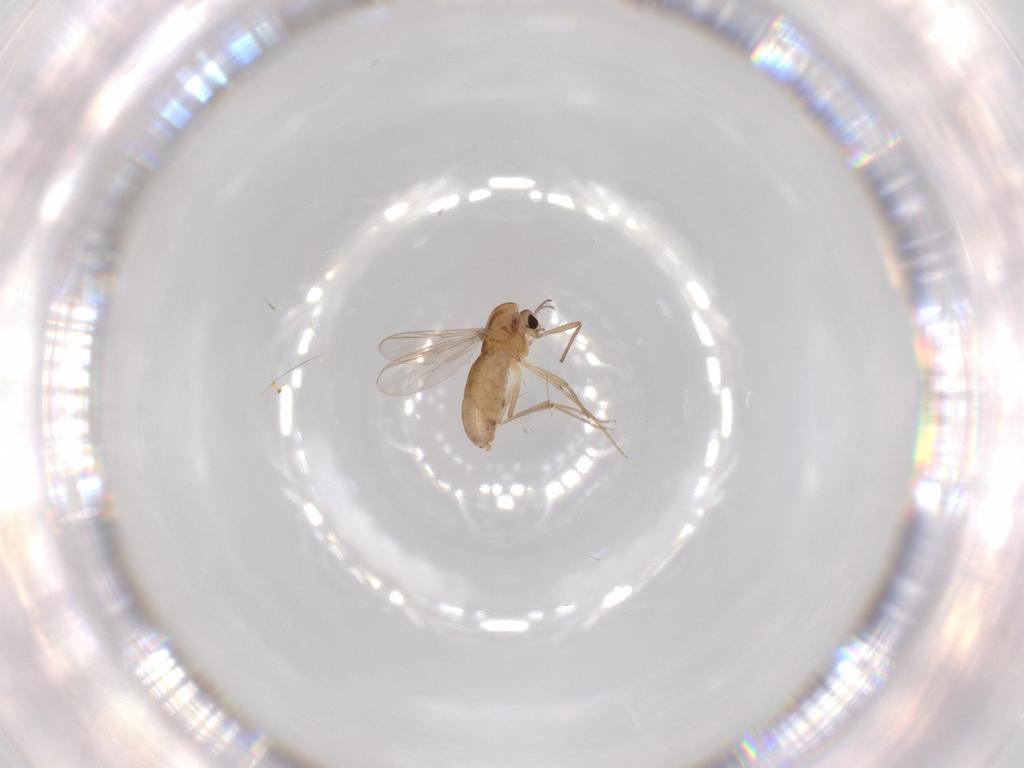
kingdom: Animalia
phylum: Arthropoda
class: Insecta
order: Diptera
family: Chironomidae
